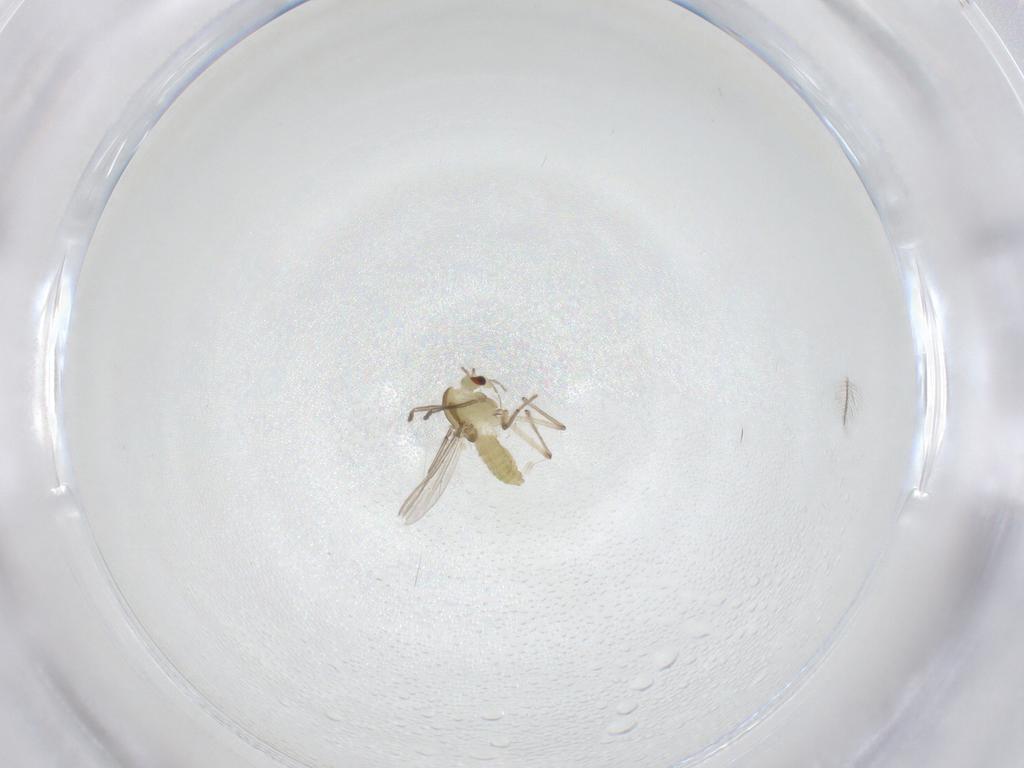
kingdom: Animalia
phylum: Arthropoda
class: Insecta
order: Diptera
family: Chironomidae
